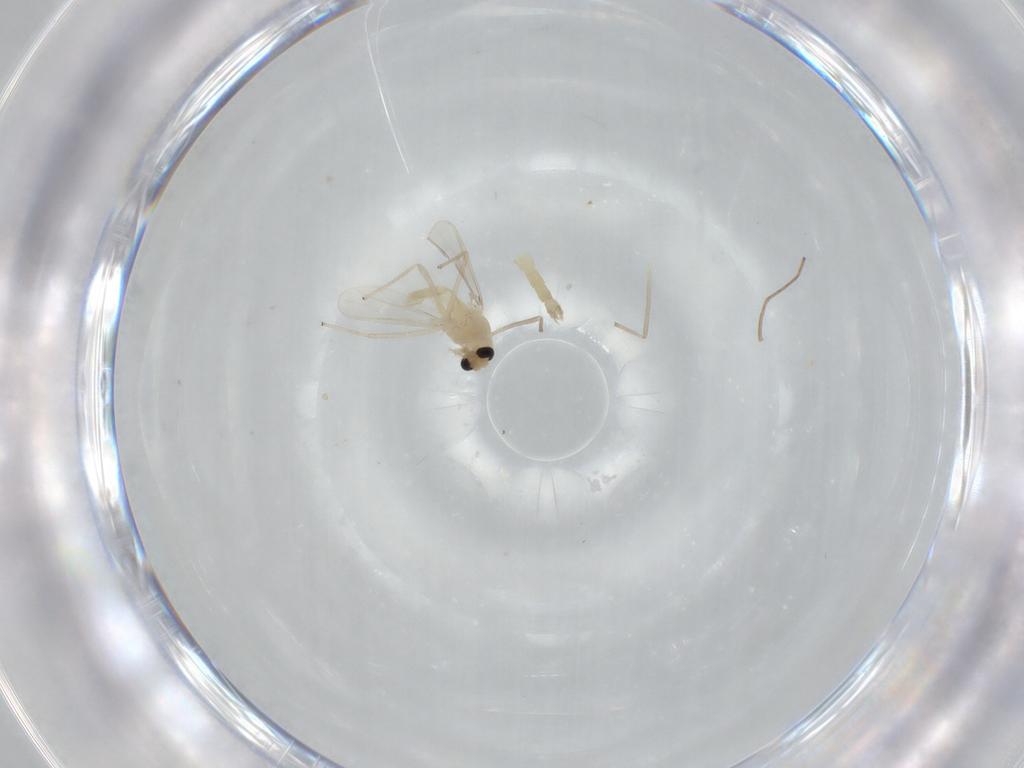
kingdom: Animalia
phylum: Arthropoda
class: Insecta
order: Diptera
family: Chironomidae
